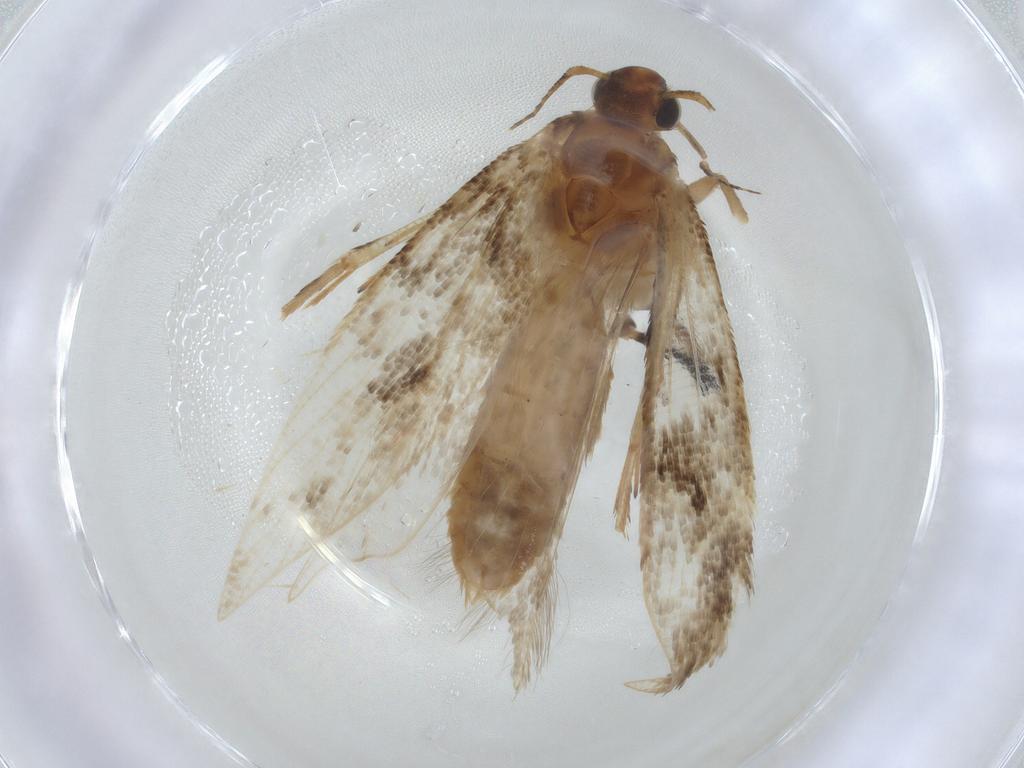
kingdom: Animalia
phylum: Arthropoda
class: Insecta
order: Lepidoptera
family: Gelechiidae
